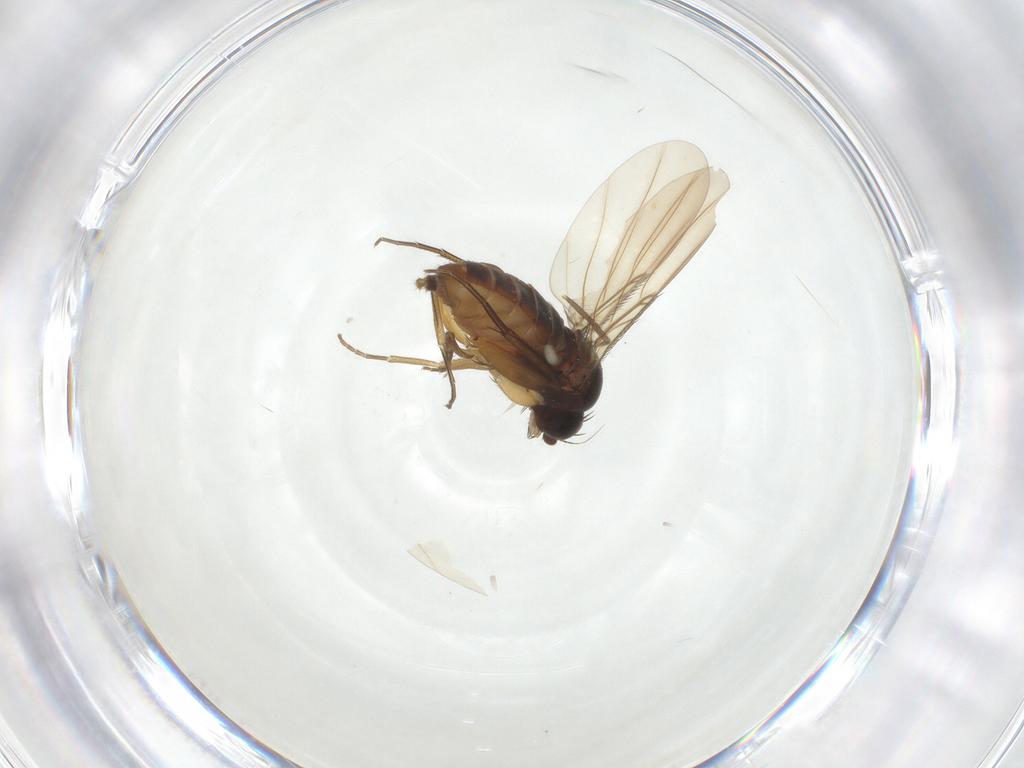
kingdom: Animalia
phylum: Arthropoda
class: Insecta
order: Diptera
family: Phoridae
